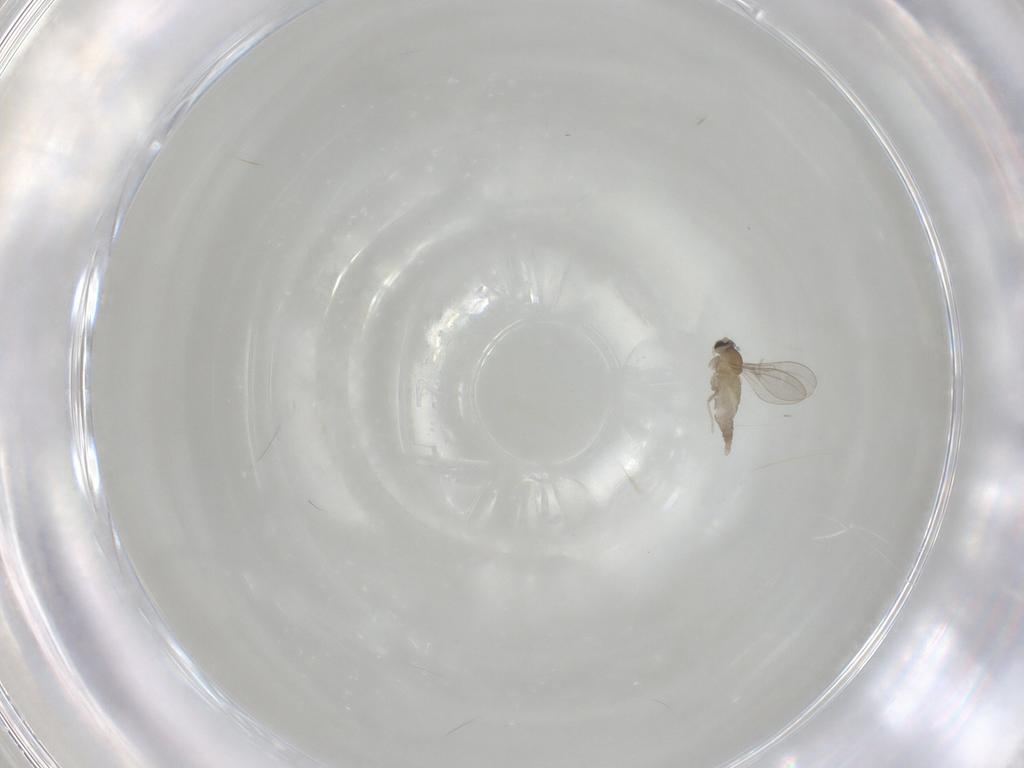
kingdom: Animalia
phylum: Arthropoda
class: Insecta
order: Diptera
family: Cecidomyiidae
